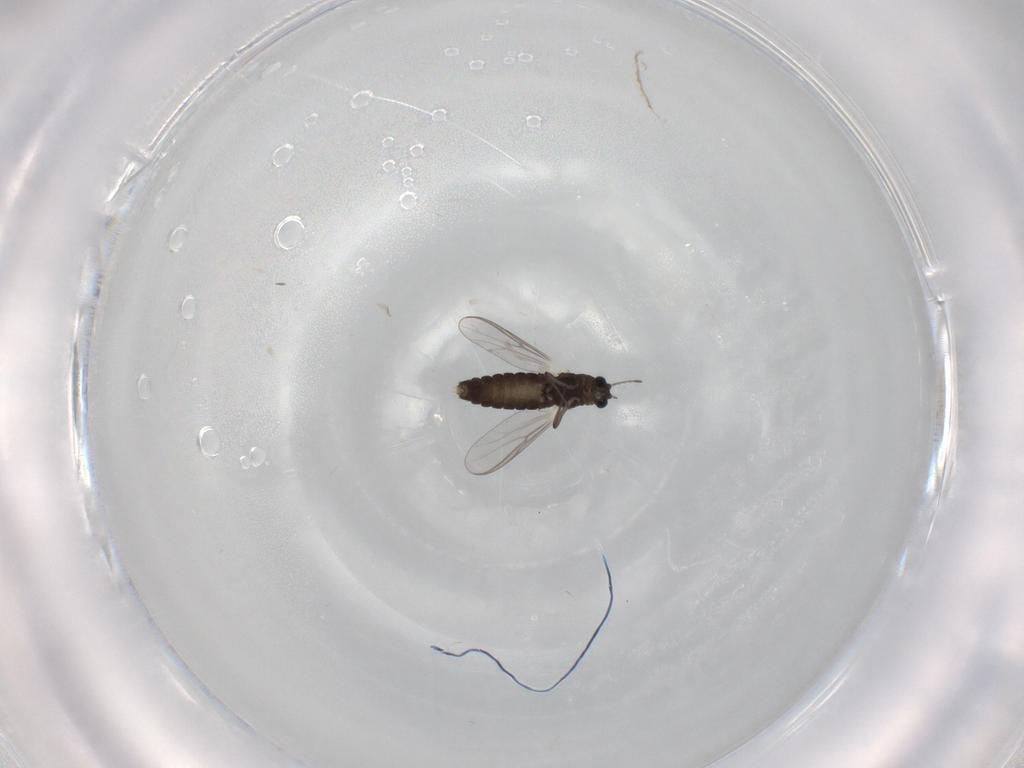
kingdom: Animalia
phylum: Arthropoda
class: Insecta
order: Diptera
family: Chironomidae
